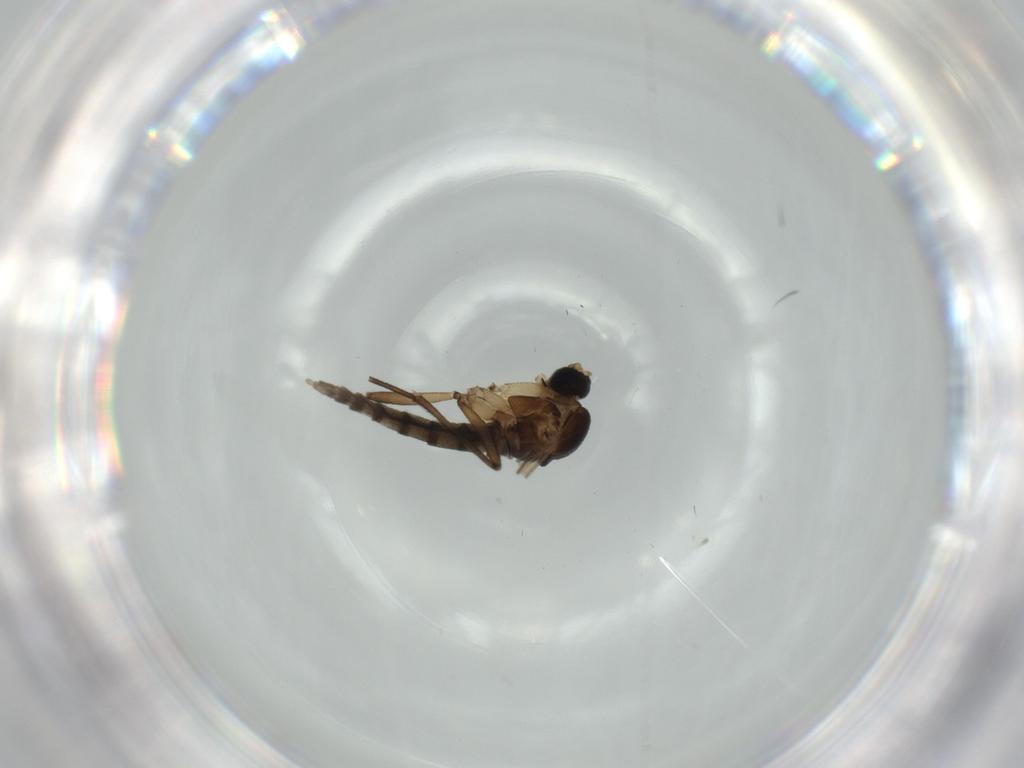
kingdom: Animalia
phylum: Arthropoda
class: Insecta
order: Diptera
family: Sciaridae
